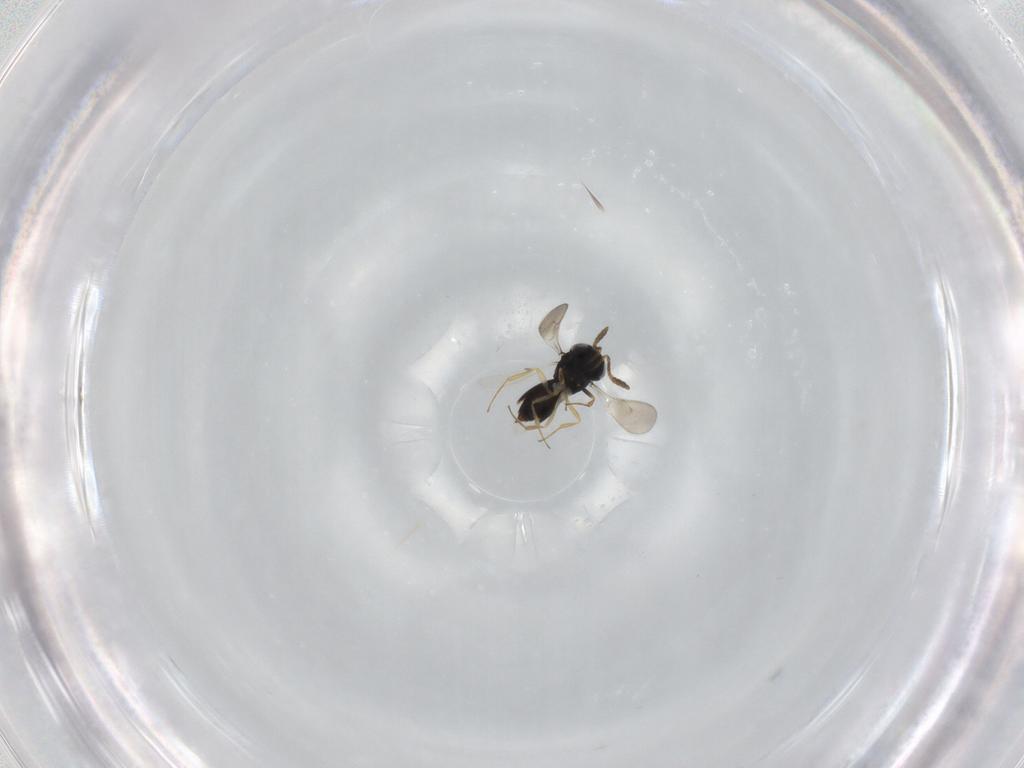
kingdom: Animalia
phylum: Arthropoda
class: Insecta
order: Hymenoptera
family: Scelionidae
